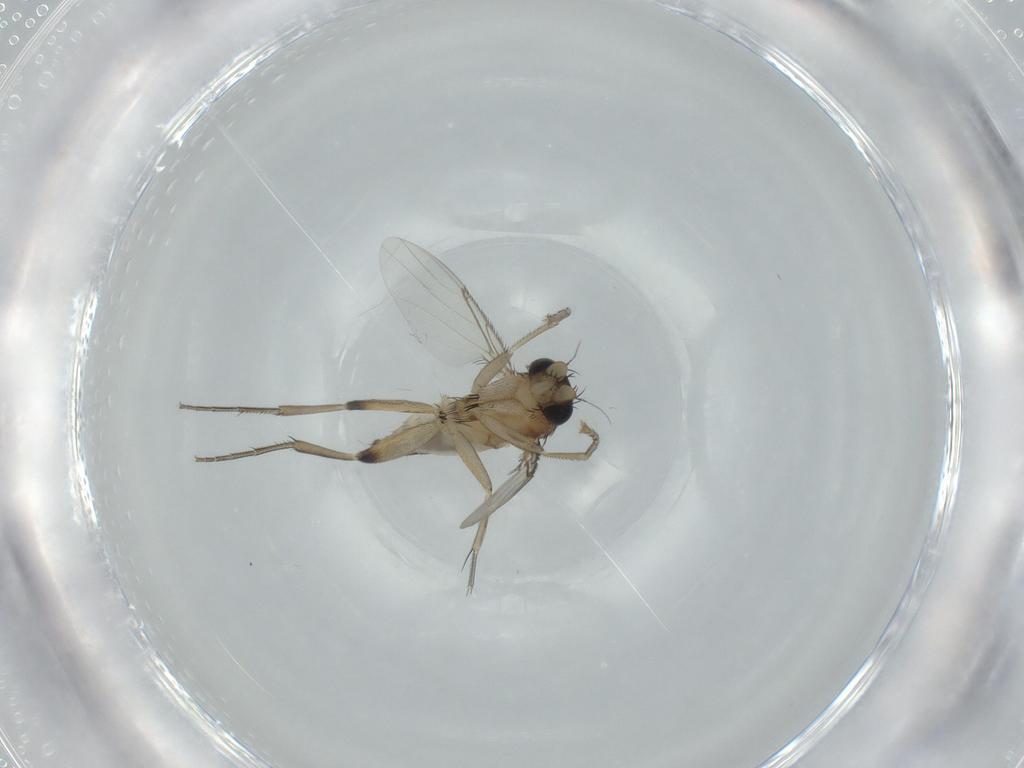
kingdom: Animalia
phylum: Arthropoda
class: Insecta
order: Diptera
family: Phoridae
